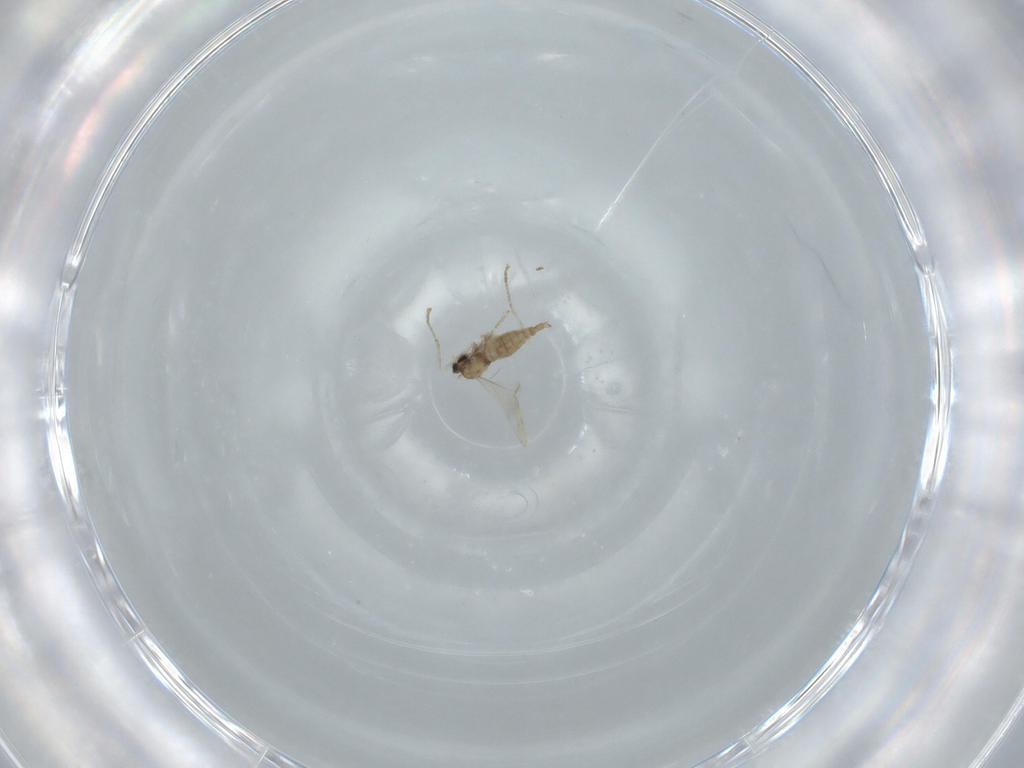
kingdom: Animalia
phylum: Arthropoda
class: Insecta
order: Diptera
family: Cecidomyiidae
